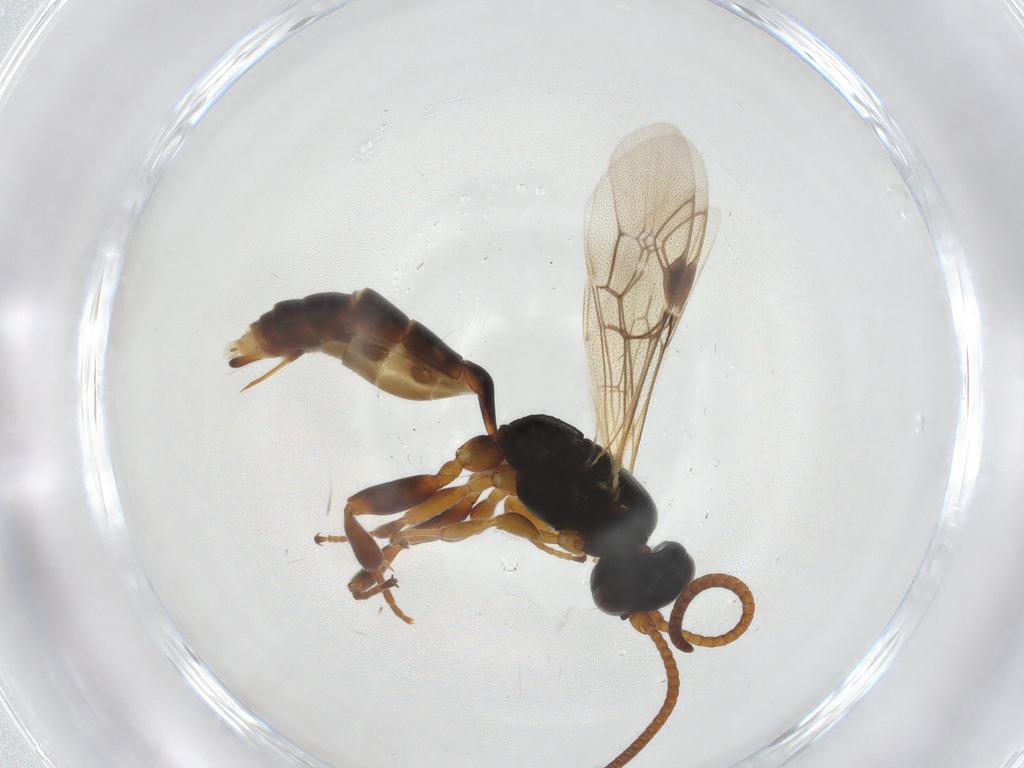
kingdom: Animalia
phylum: Arthropoda
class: Insecta
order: Hymenoptera
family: Ichneumonidae
